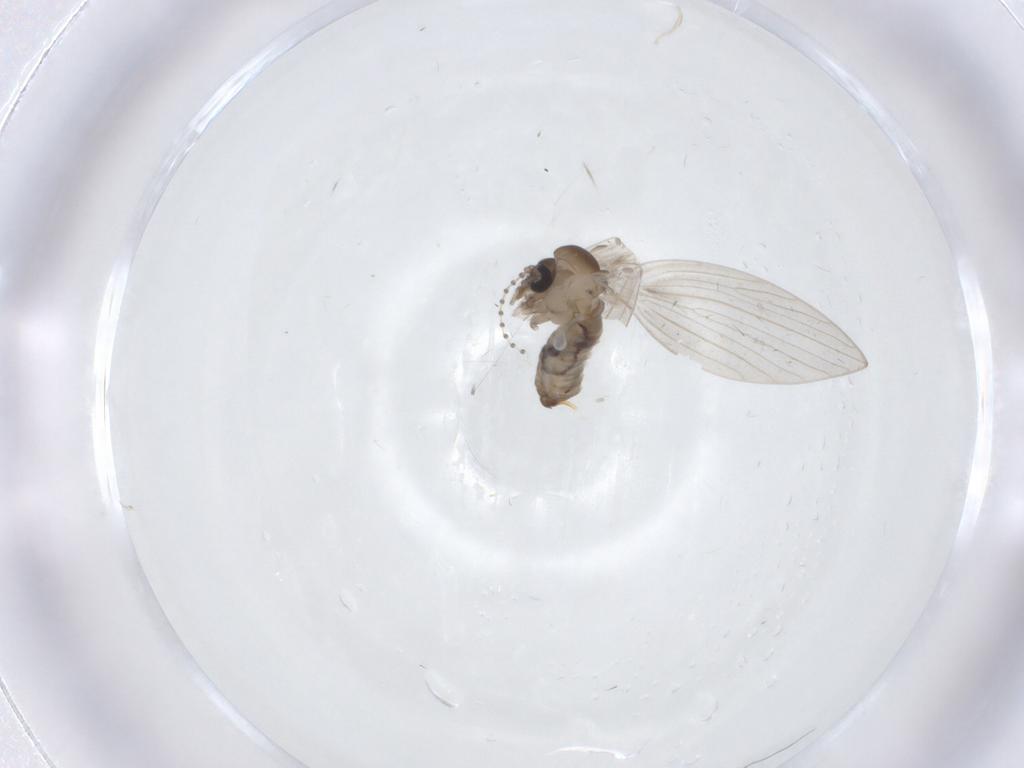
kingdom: Animalia
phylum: Arthropoda
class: Insecta
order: Diptera
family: Psychodidae
